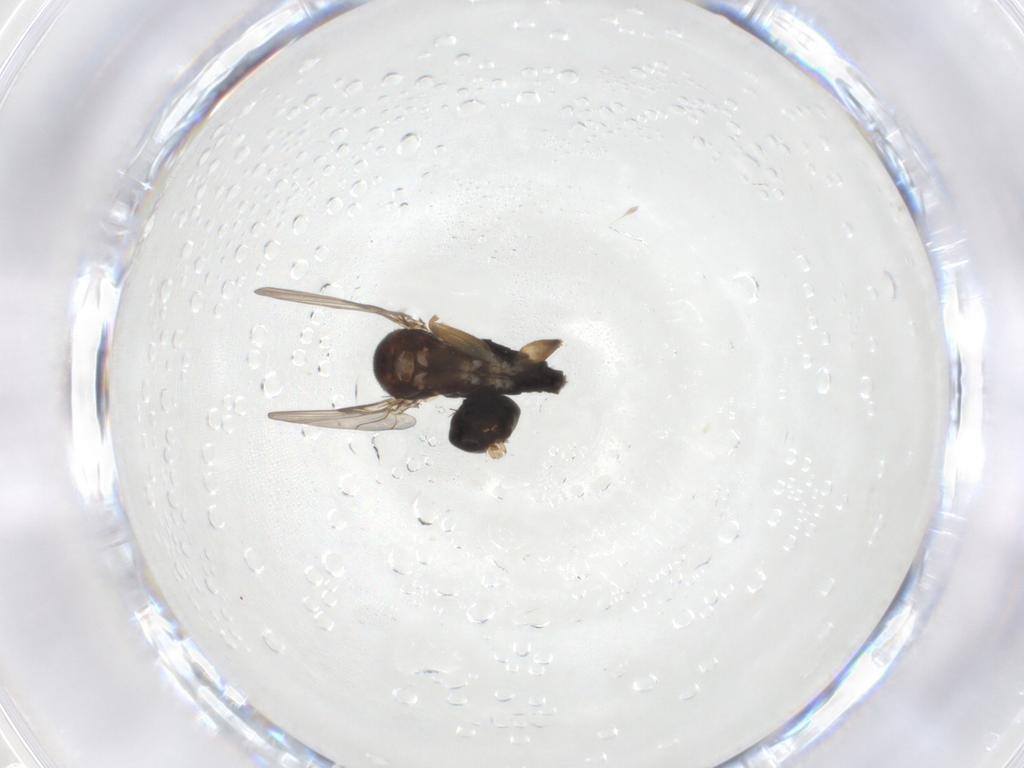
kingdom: Animalia
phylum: Arthropoda
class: Insecta
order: Diptera
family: Phoridae
